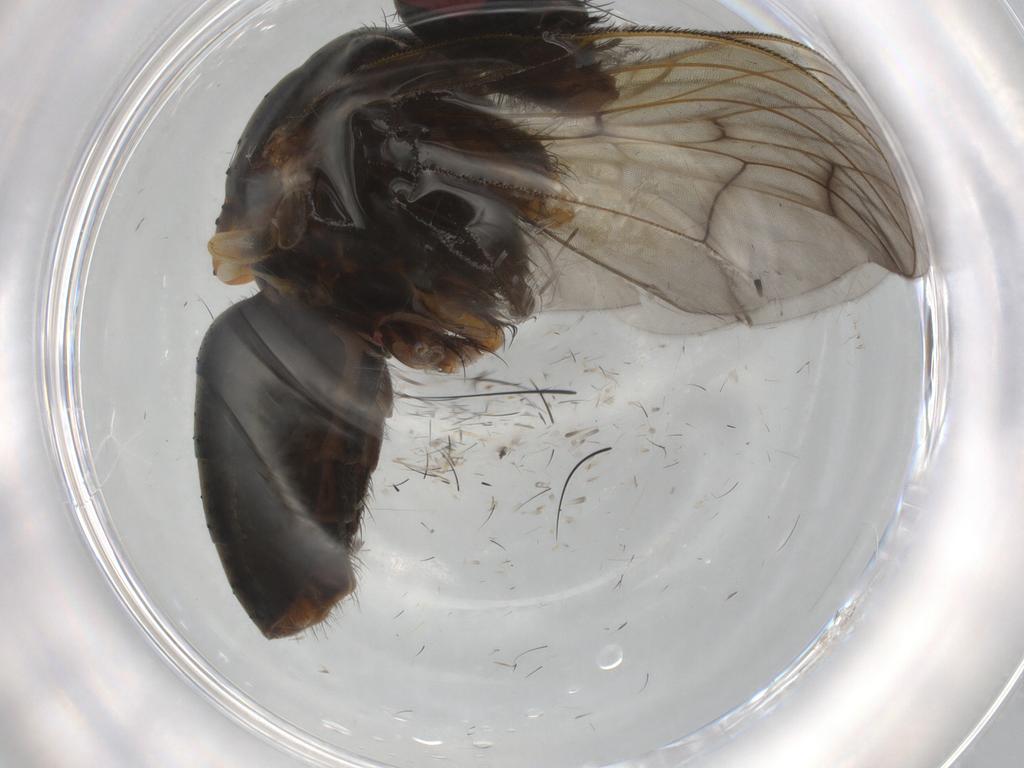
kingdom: Animalia
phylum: Arthropoda
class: Insecta
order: Diptera
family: Muscidae
